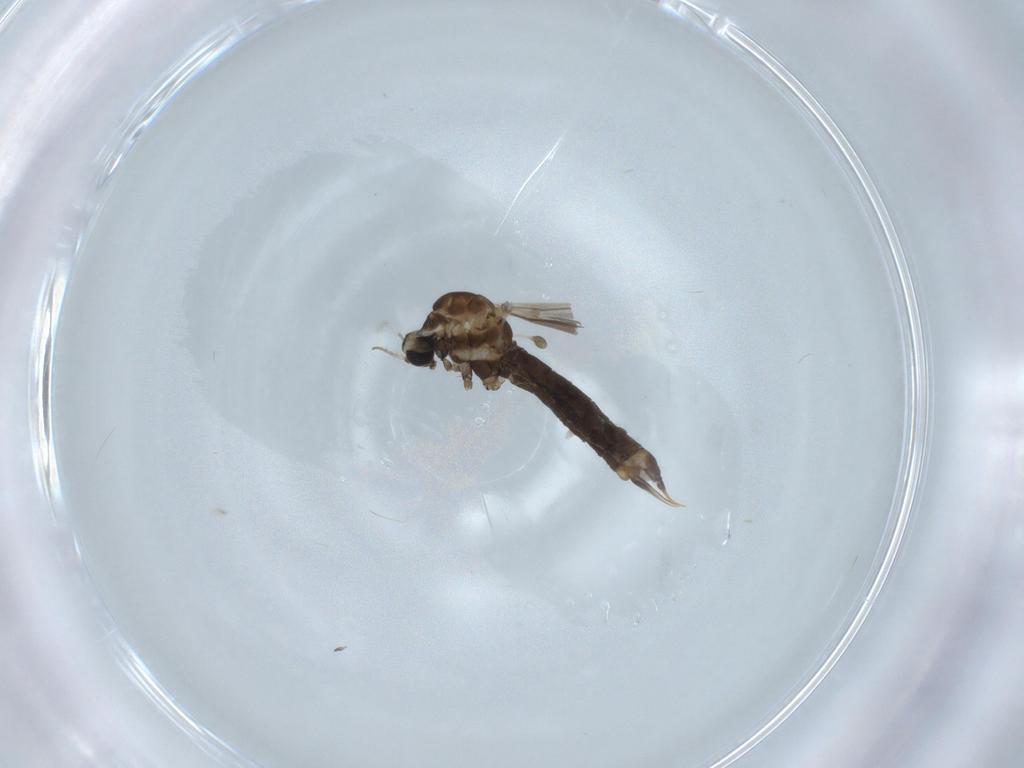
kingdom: Animalia
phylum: Arthropoda
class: Insecta
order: Diptera
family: Limoniidae
